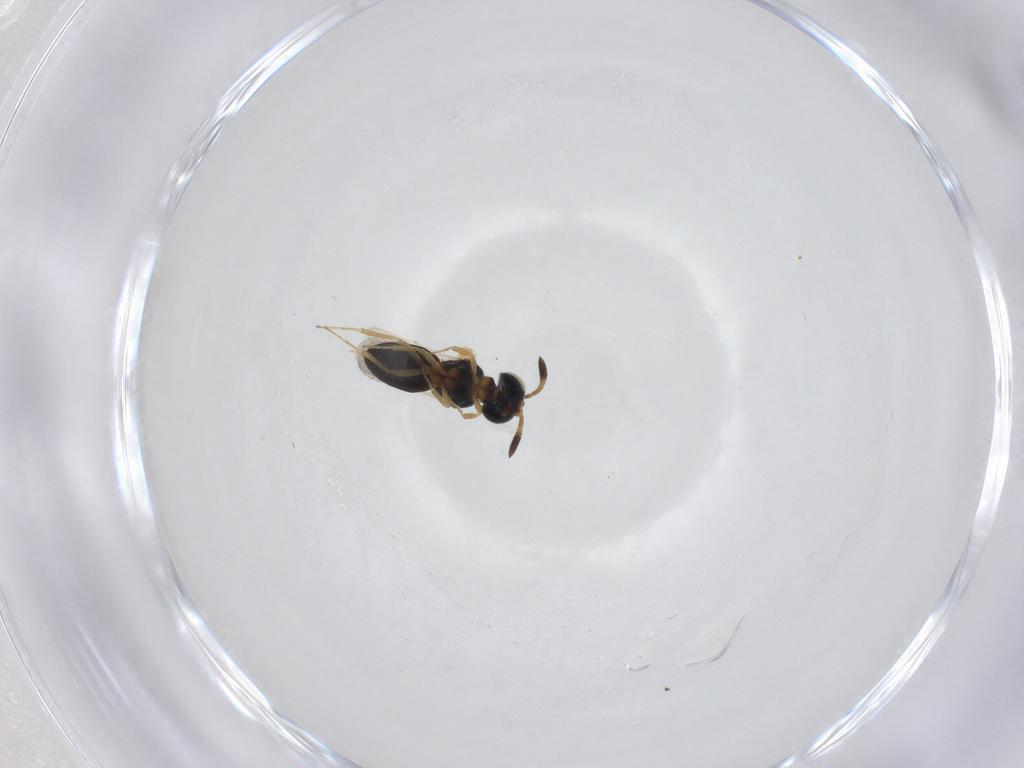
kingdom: Animalia
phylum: Arthropoda
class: Insecta
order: Hymenoptera
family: Scelionidae
